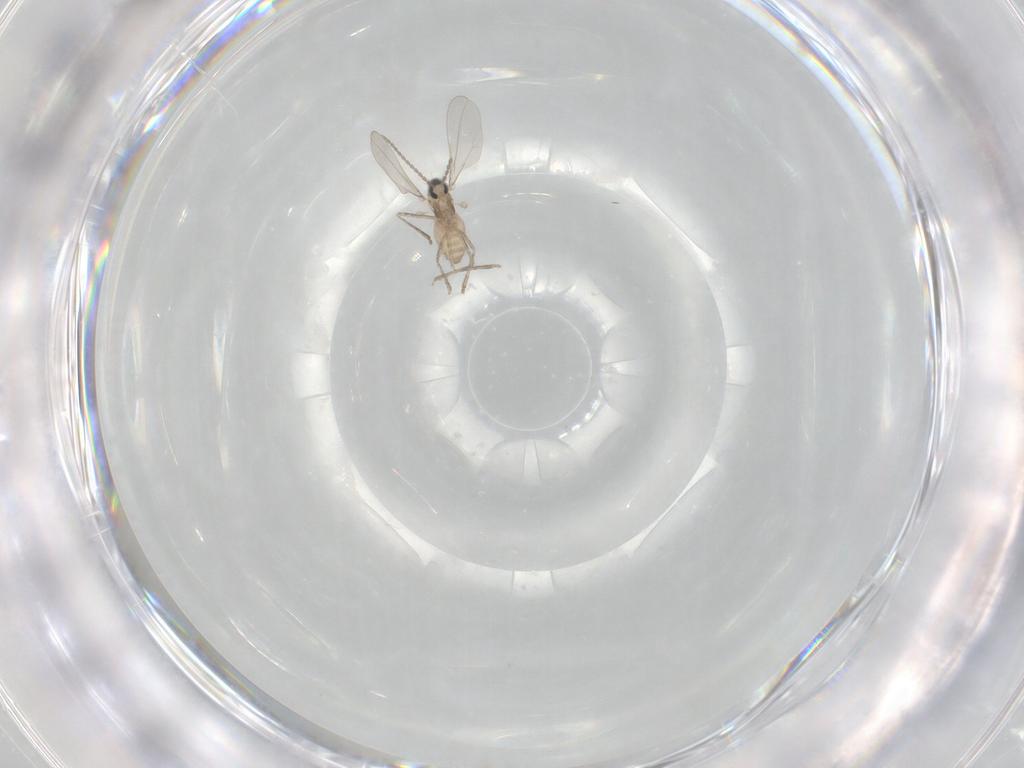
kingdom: Animalia
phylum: Arthropoda
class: Insecta
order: Diptera
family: Cecidomyiidae
